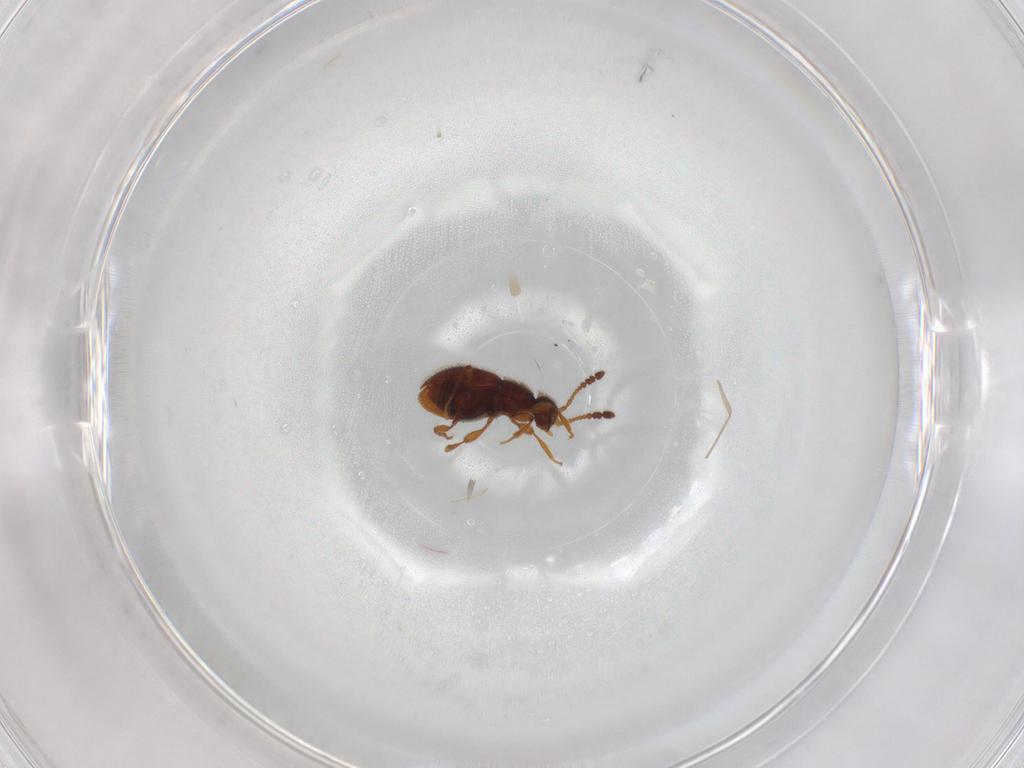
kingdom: Animalia
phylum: Arthropoda
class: Insecta
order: Coleoptera
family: Staphylinidae
